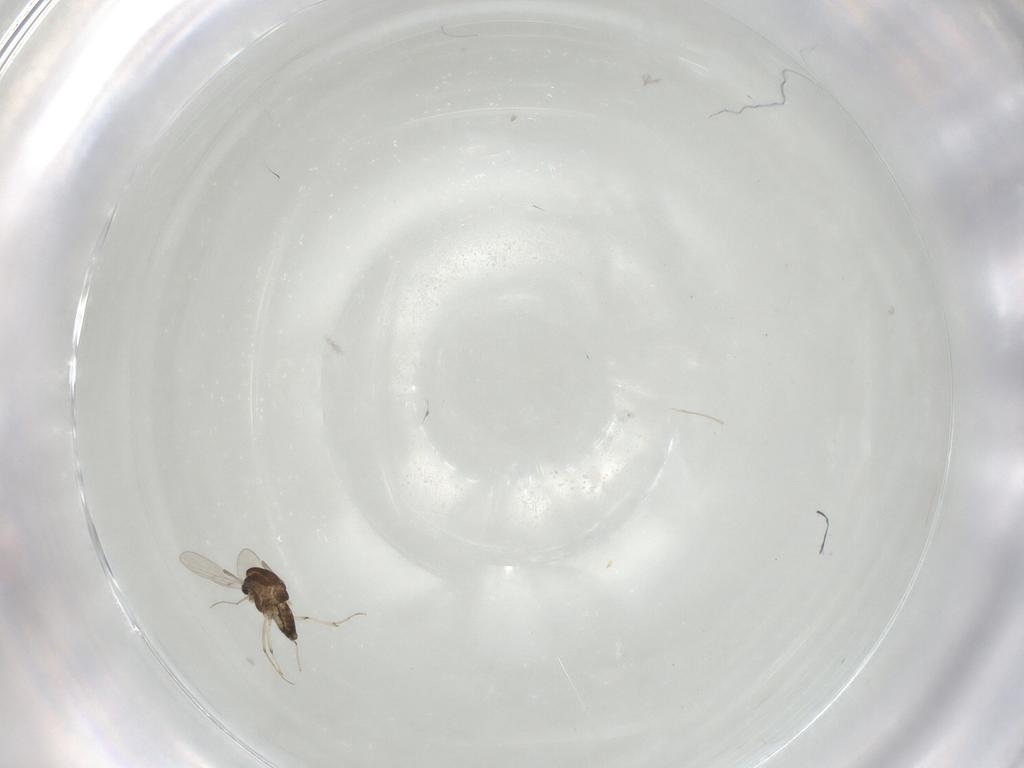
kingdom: Animalia
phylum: Arthropoda
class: Insecta
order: Diptera
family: Chironomidae
